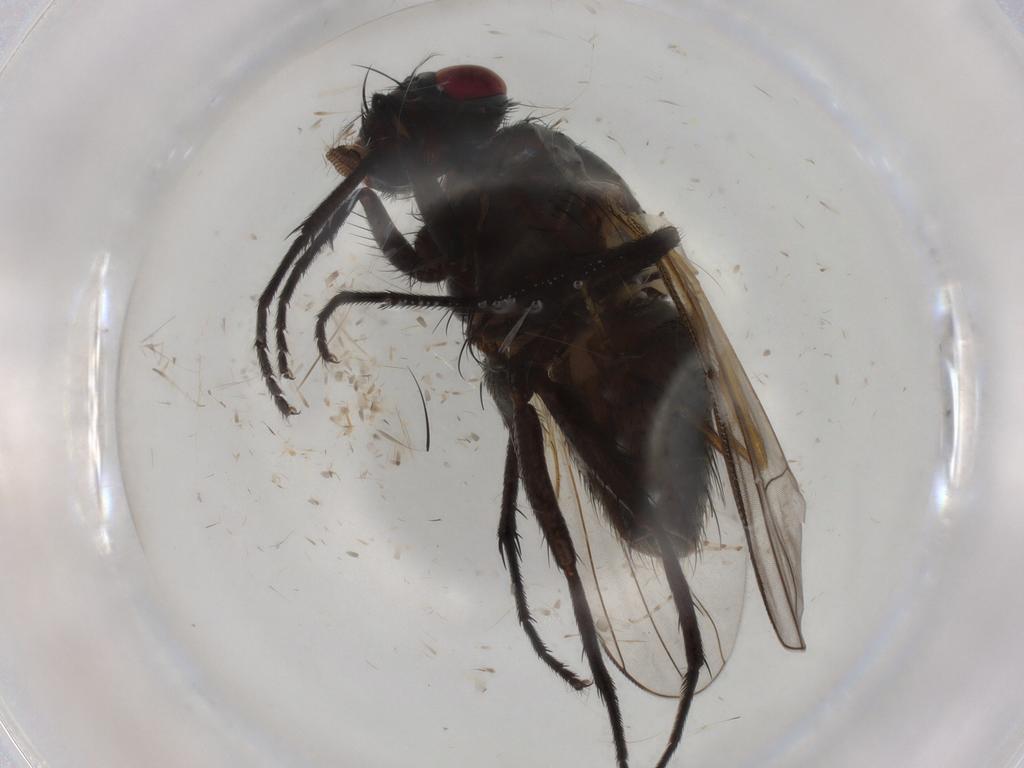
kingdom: Animalia
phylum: Arthropoda
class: Insecta
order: Diptera
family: Muscidae
